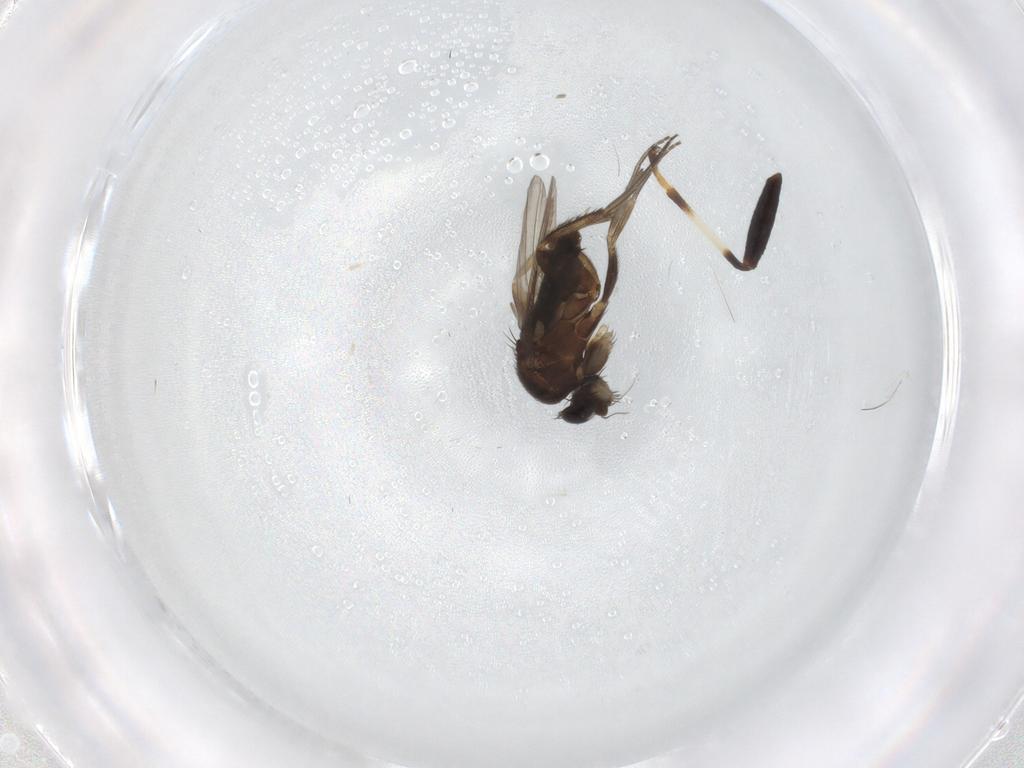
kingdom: Animalia
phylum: Arthropoda
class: Insecta
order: Diptera
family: Phoridae
